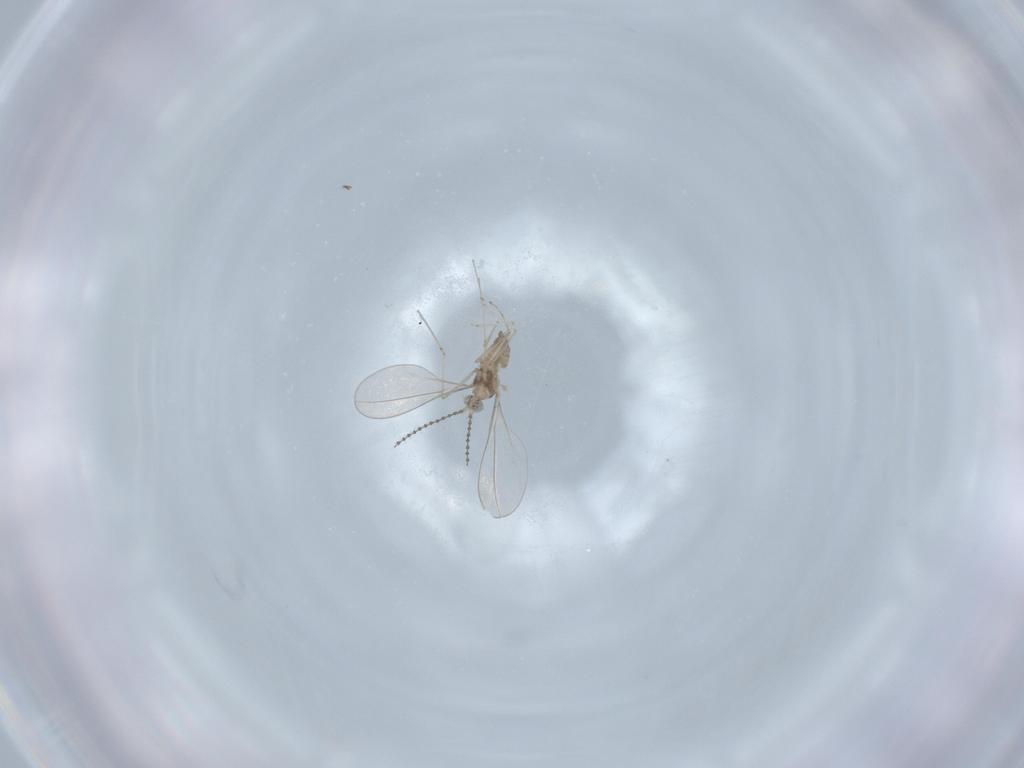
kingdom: Animalia
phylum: Arthropoda
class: Insecta
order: Diptera
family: Cecidomyiidae
